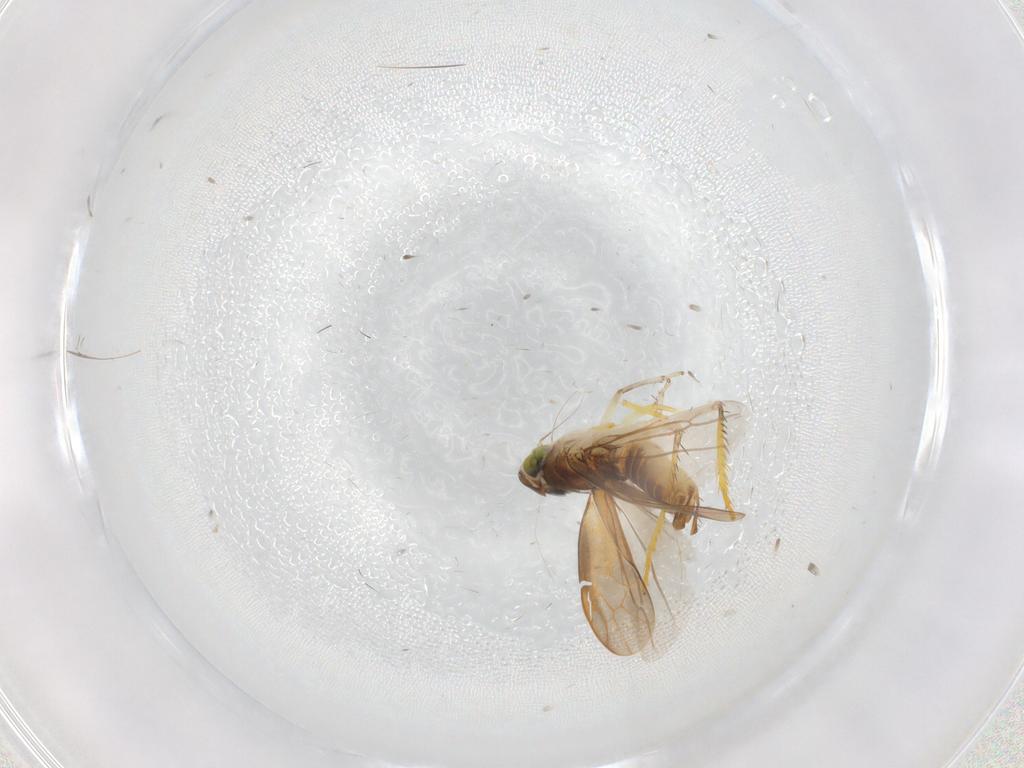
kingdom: Animalia
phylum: Arthropoda
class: Insecta
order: Hemiptera
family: Cicadellidae
